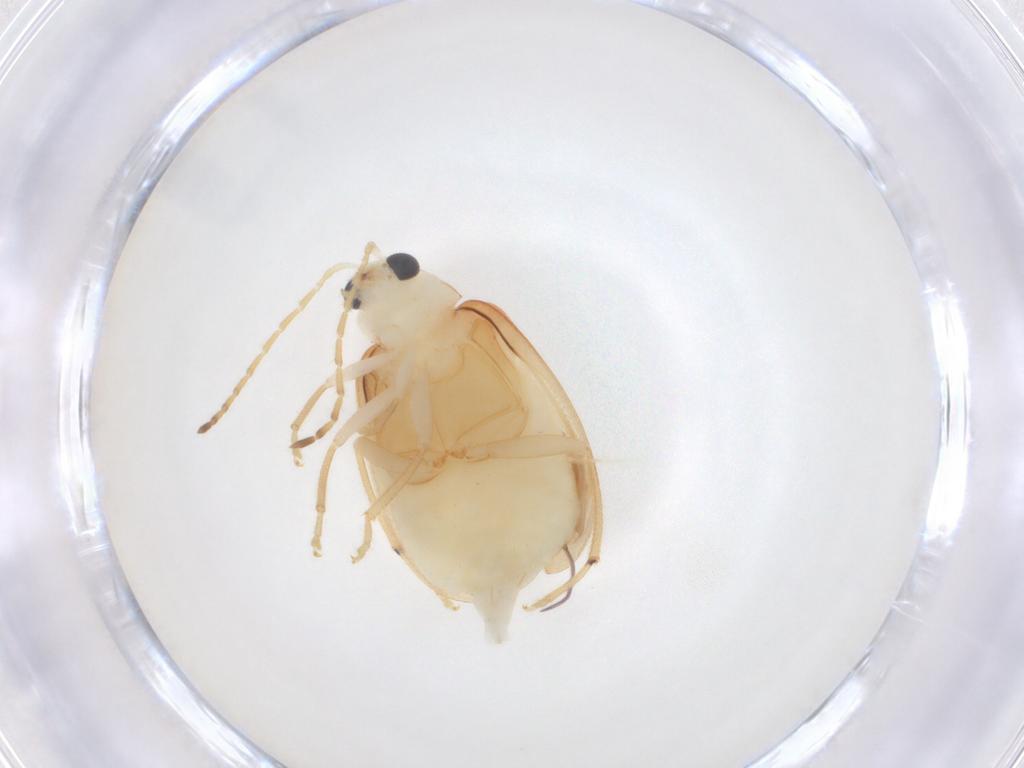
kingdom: Animalia
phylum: Arthropoda
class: Insecta
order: Coleoptera
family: Chrysomelidae
